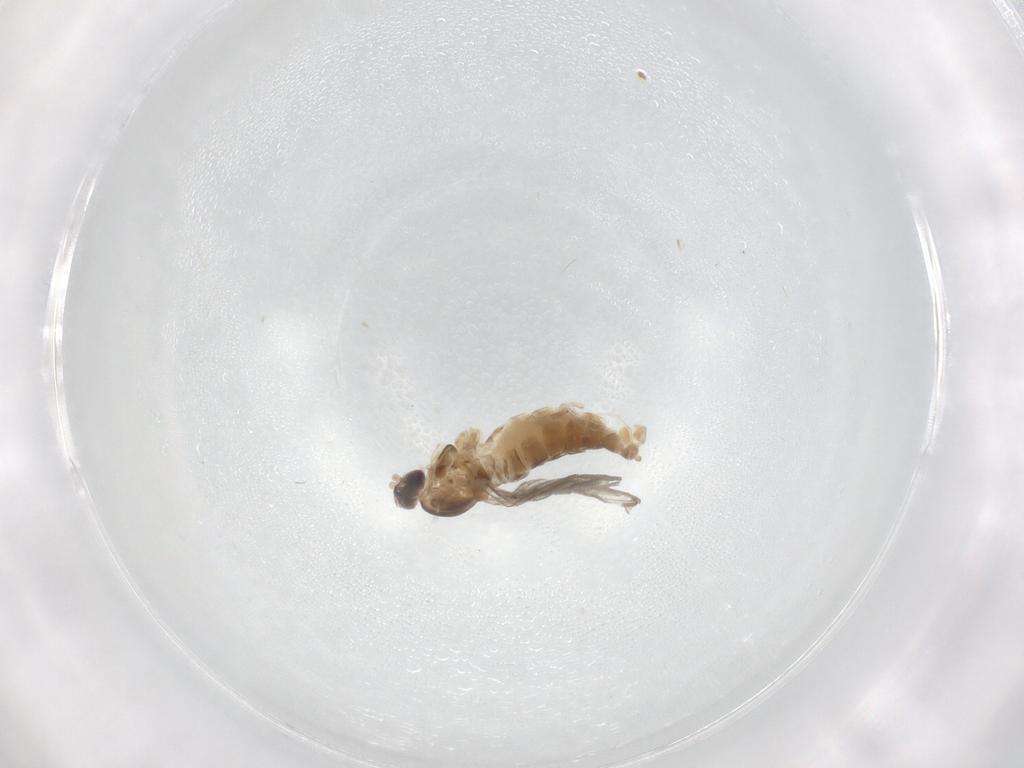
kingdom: Animalia
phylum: Arthropoda
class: Insecta
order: Diptera
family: Cecidomyiidae
